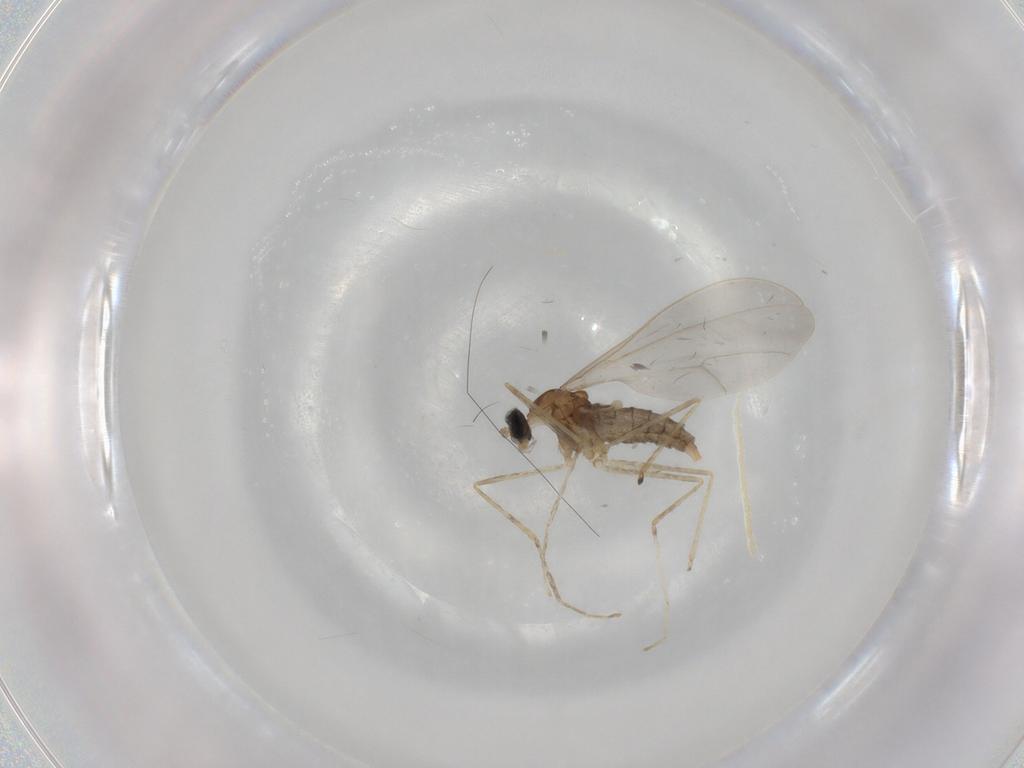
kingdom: Animalia
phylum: Arthropoda
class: Insecta
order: Diptera
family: Cecidomyiidae
